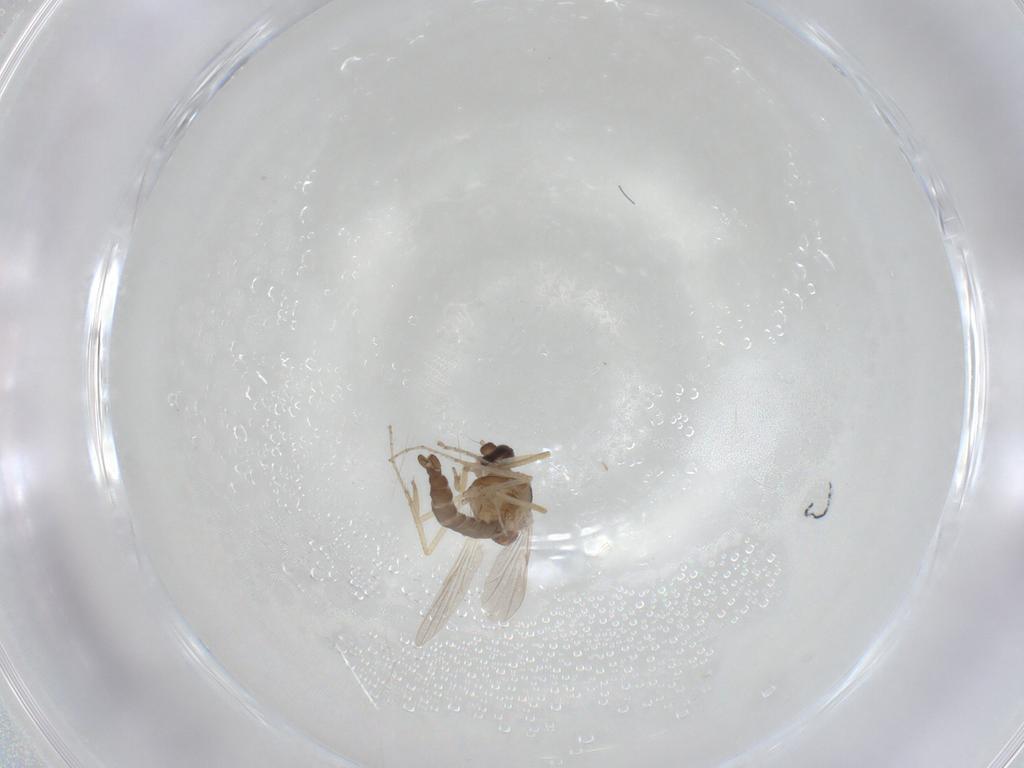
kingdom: Animalia
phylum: Arthropoda
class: Insecta
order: Diptera
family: Ceratopogonidae
